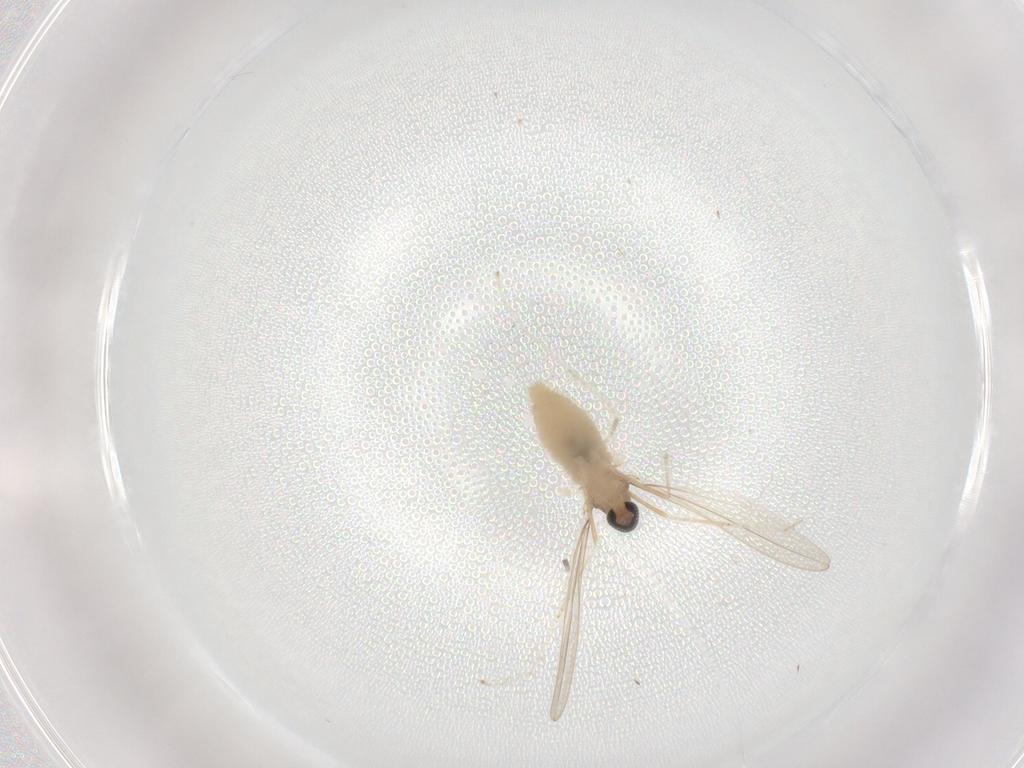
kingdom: Animalia
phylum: Arthropoda
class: Insecta
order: Diptera
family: Cecidomyiidae
